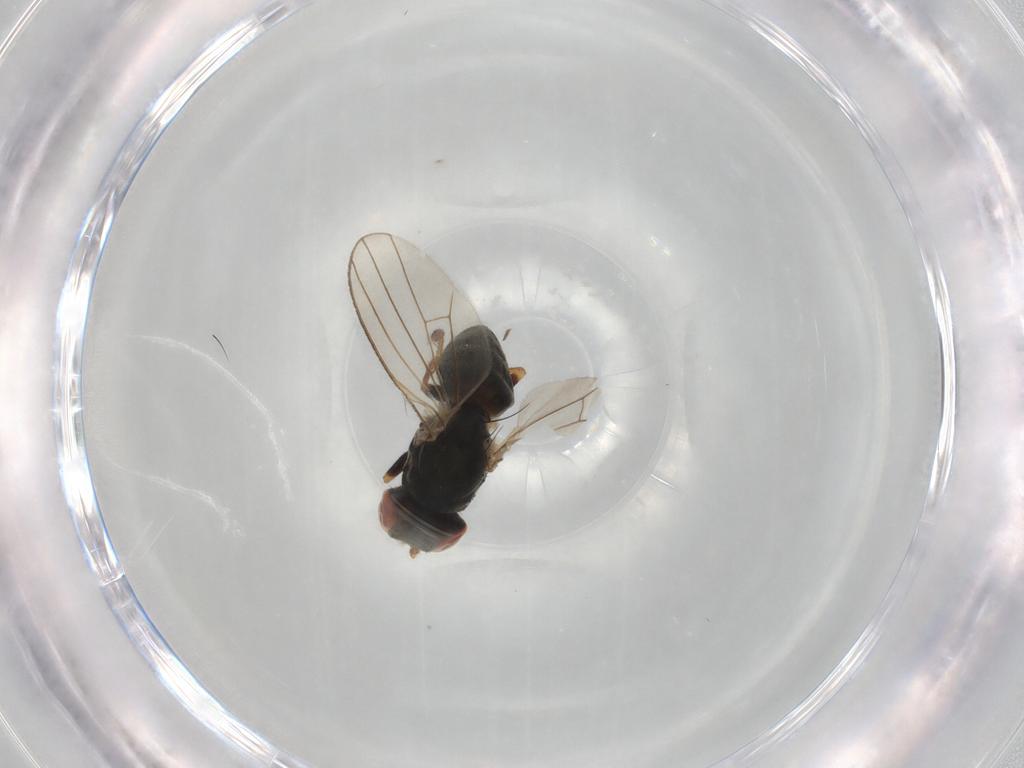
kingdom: Animalia
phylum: Arthropoda
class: Insecta
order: Diptera
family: Chamaemyiidae
